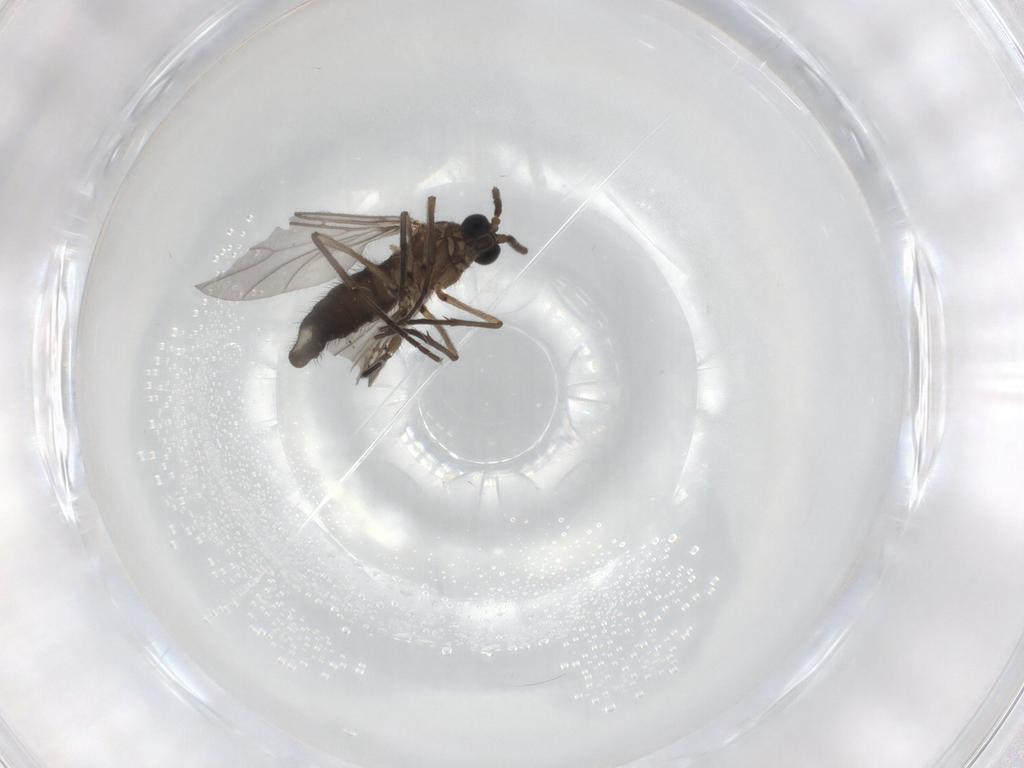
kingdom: Animalia
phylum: Arthropoda
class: Insecta
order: Diptera
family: Sciaridae
